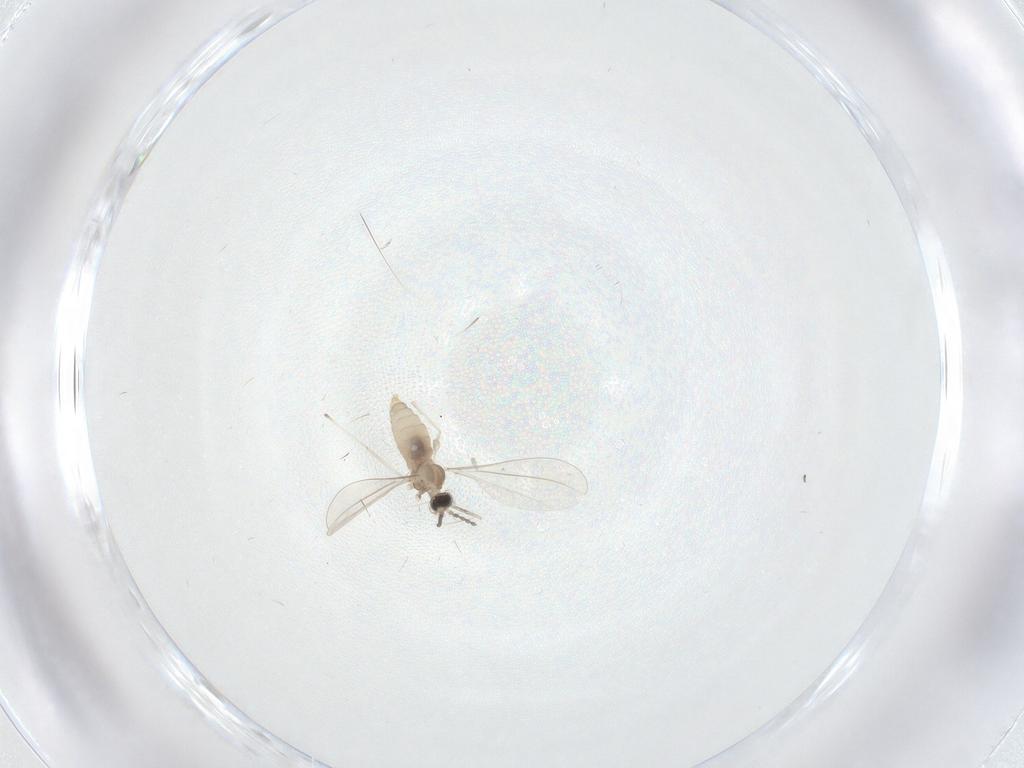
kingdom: Animalia
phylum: Arthropoda
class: Insecta
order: Diptera
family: Cecidomyiidae
